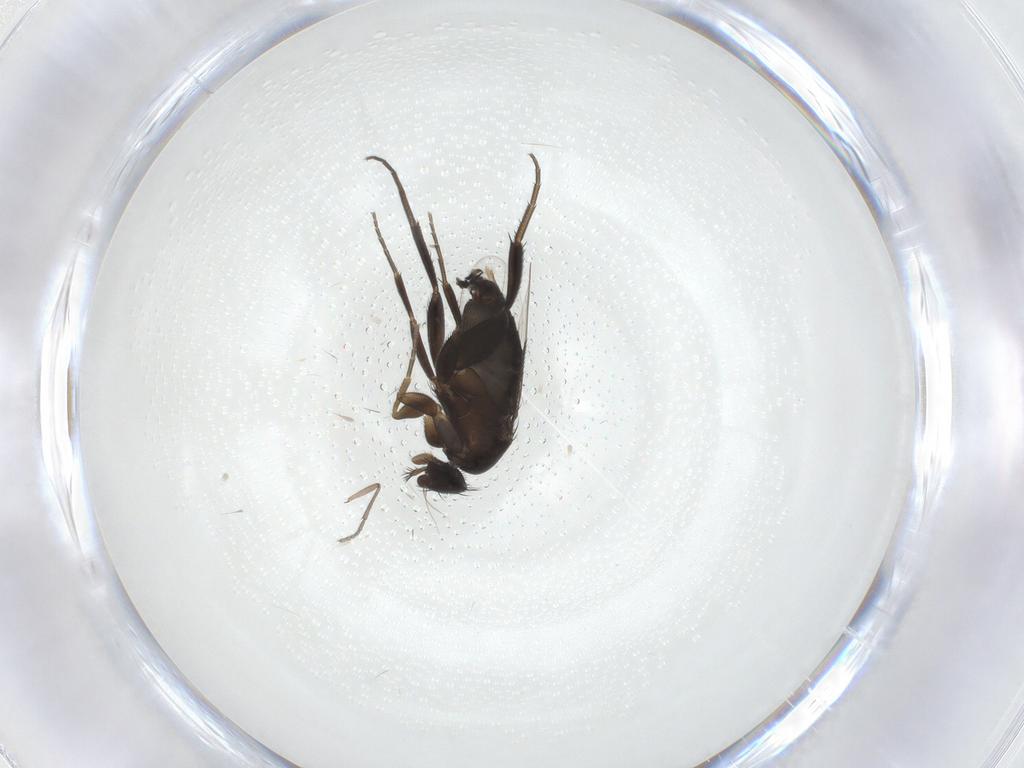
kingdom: Animalia
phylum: Arthropoda
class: Insecta
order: Diptera
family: Phoridae
